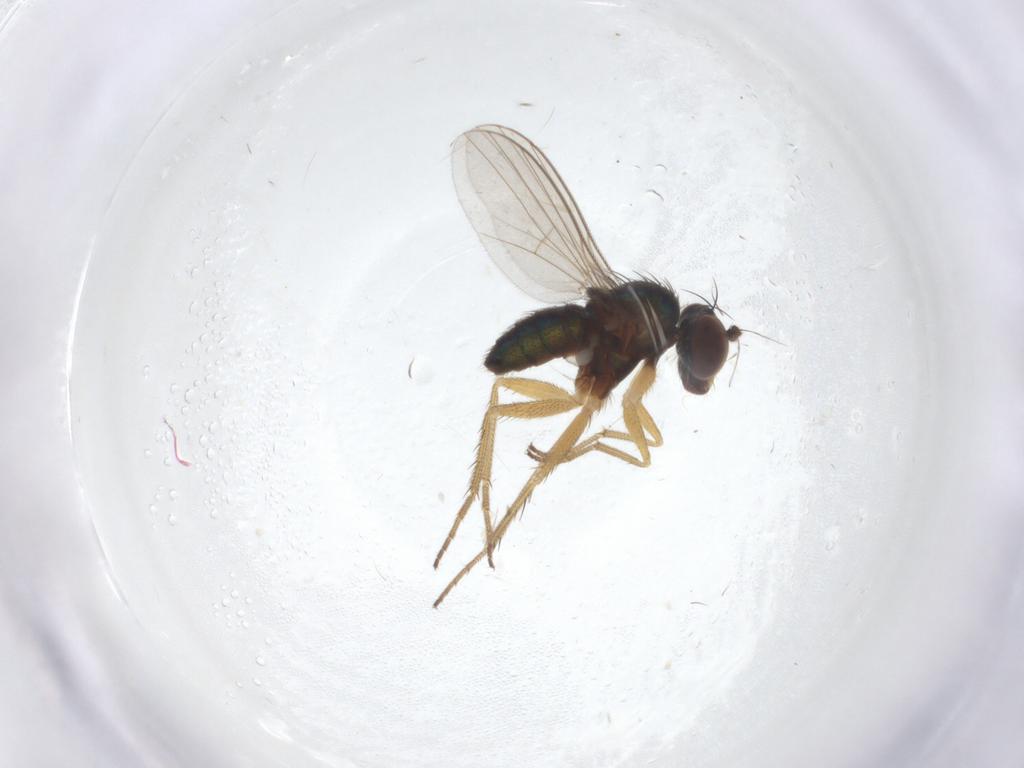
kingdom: Animalia
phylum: Arthropoda
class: Insecta
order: Diptera
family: Dolichopodidae
